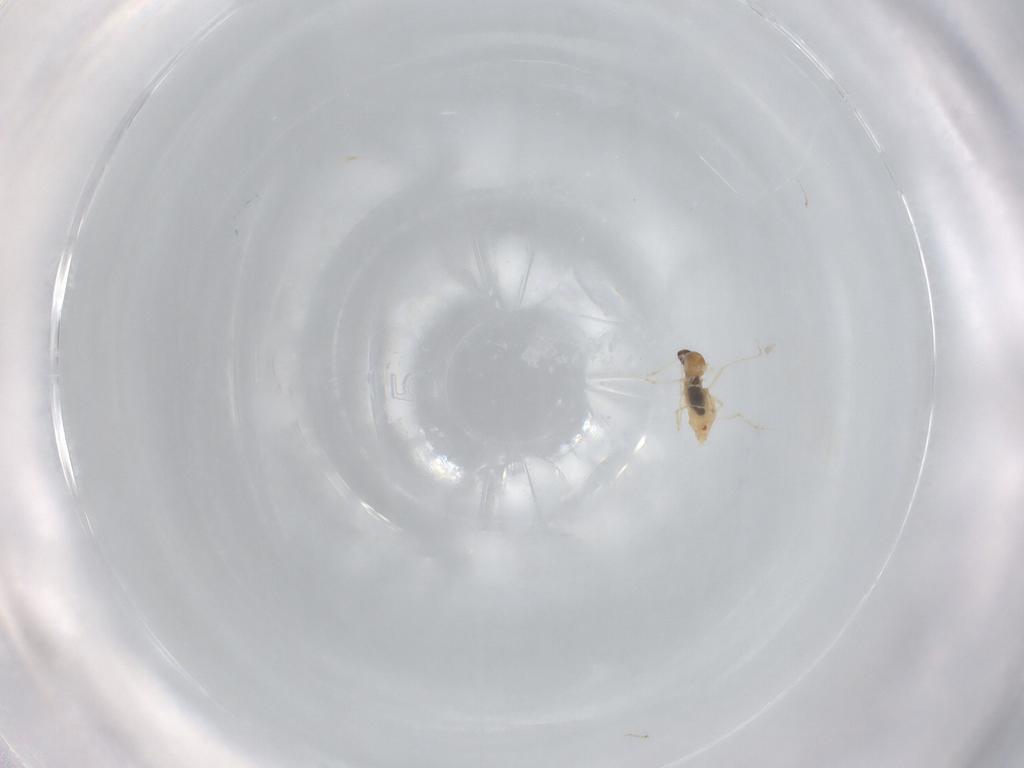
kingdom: Animalia
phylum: Arthropoda
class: Insecta
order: Diptera
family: Cecidomyiidae
